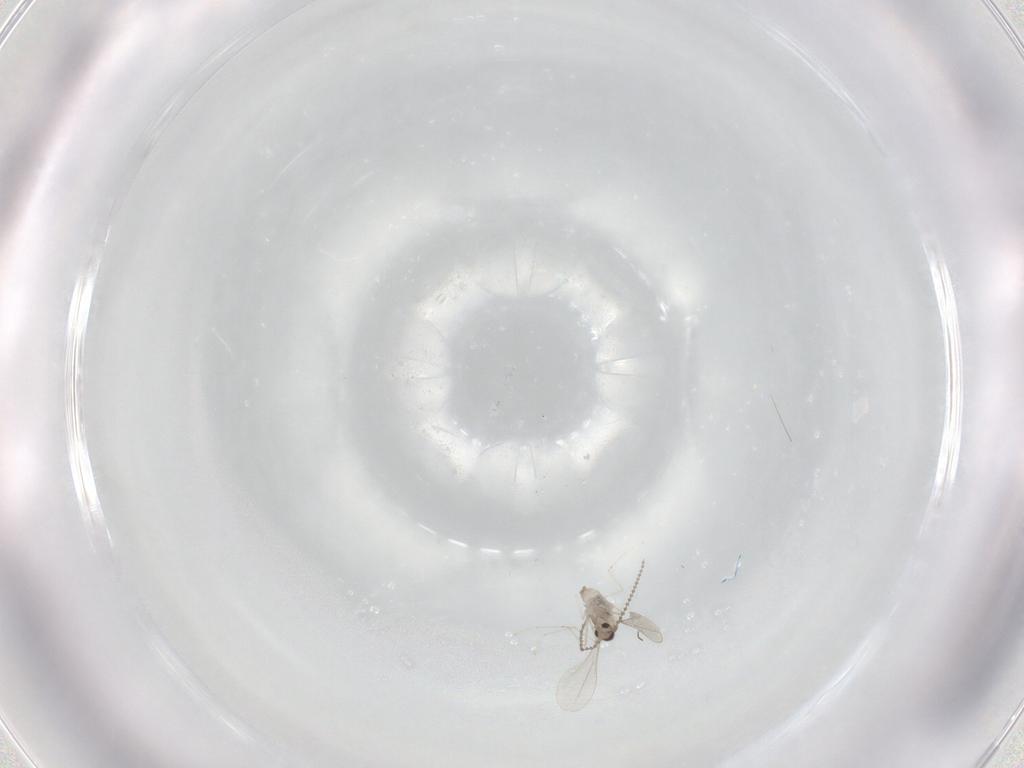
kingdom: Animalia
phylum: Arthropoda
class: Insecta
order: Diptera
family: Cecidomyiidae
